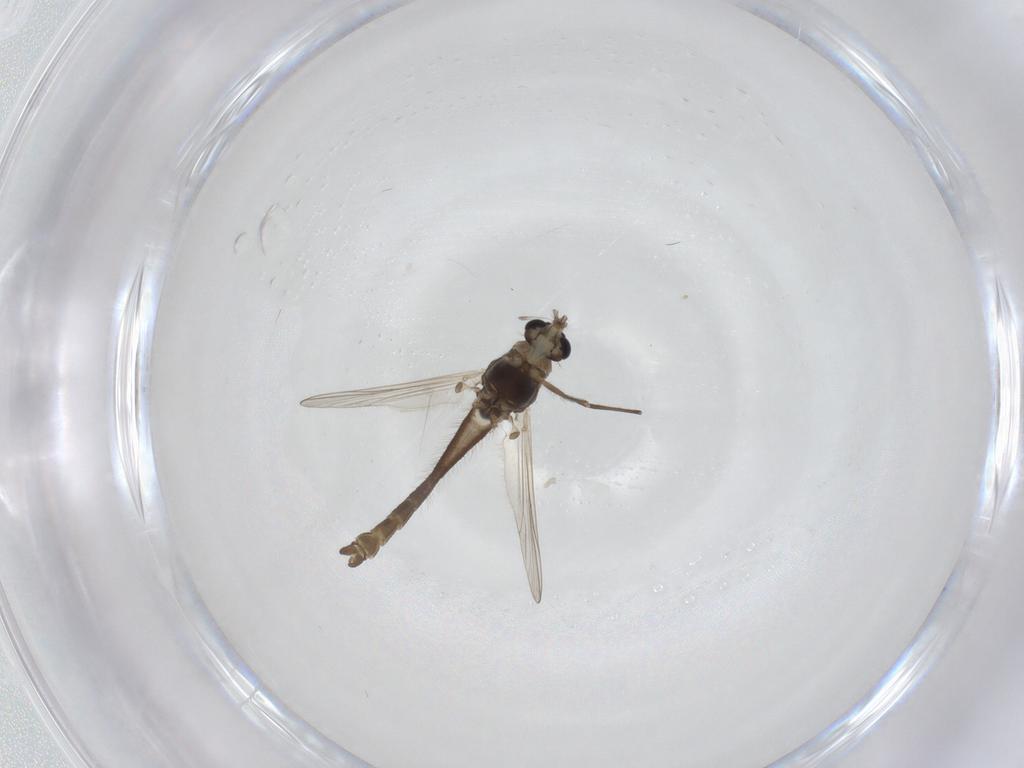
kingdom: Animalia
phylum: Arthropoda
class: Insecta
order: Diptera
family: Chironomidae
